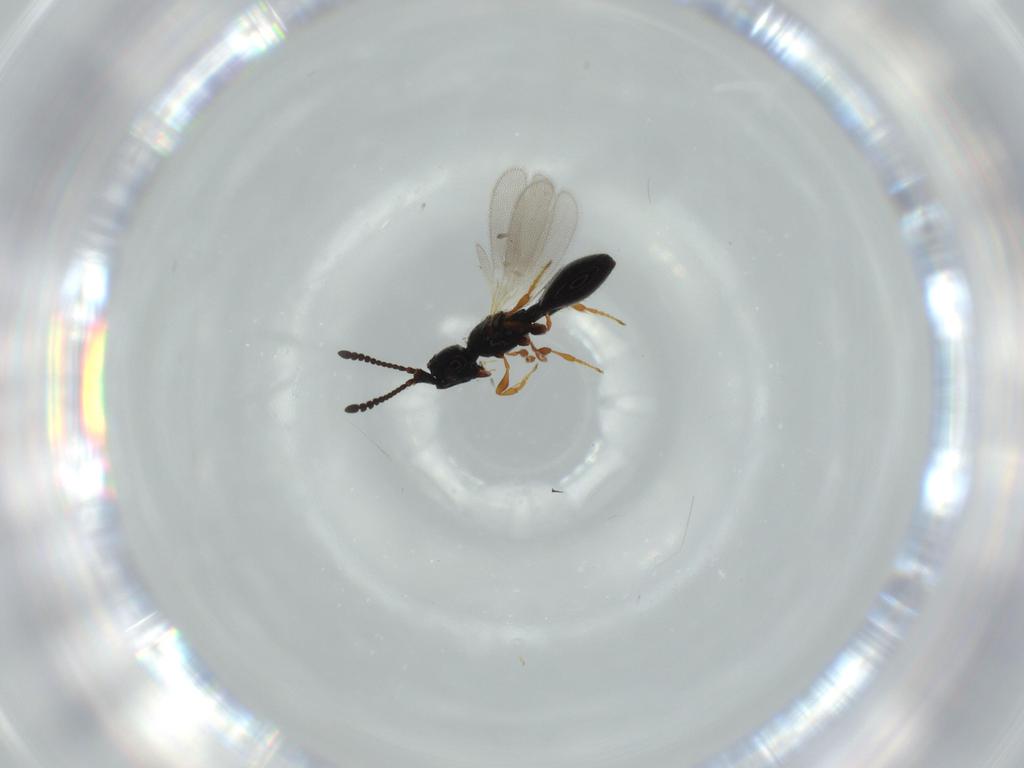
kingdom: Animalia
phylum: Arthropoda
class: Insecta
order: Hymenoptera
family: Diapriidae
